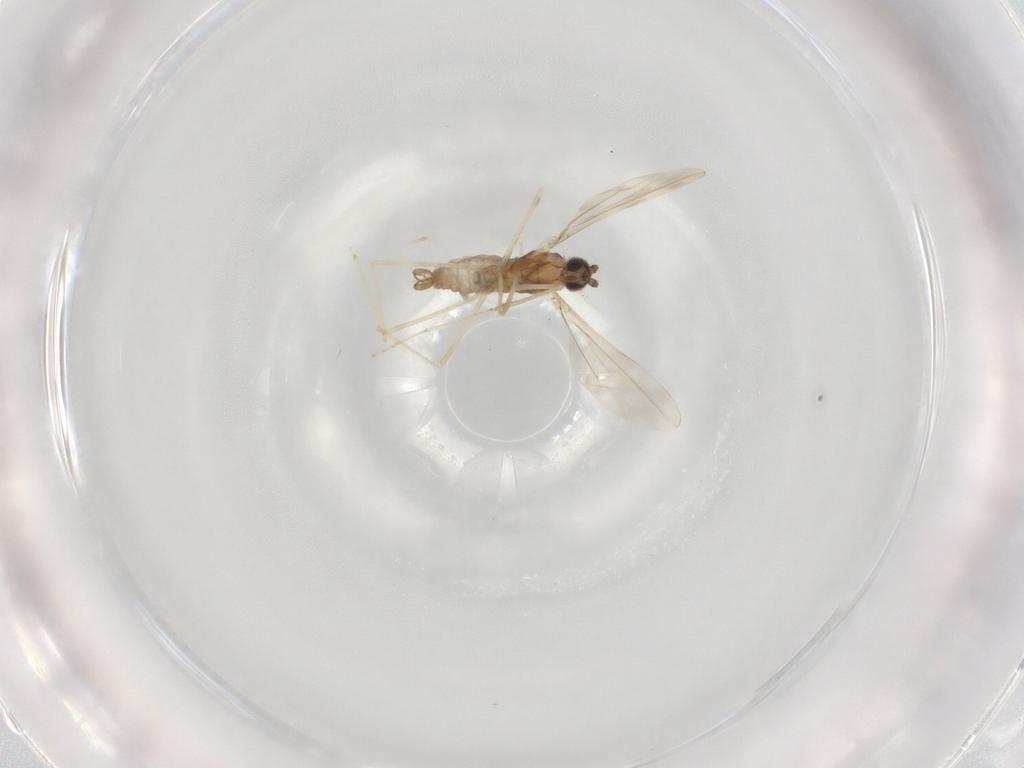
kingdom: Animalia
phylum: Arthropoda
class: Insecta
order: Diptera
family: Cecidomyiidae
